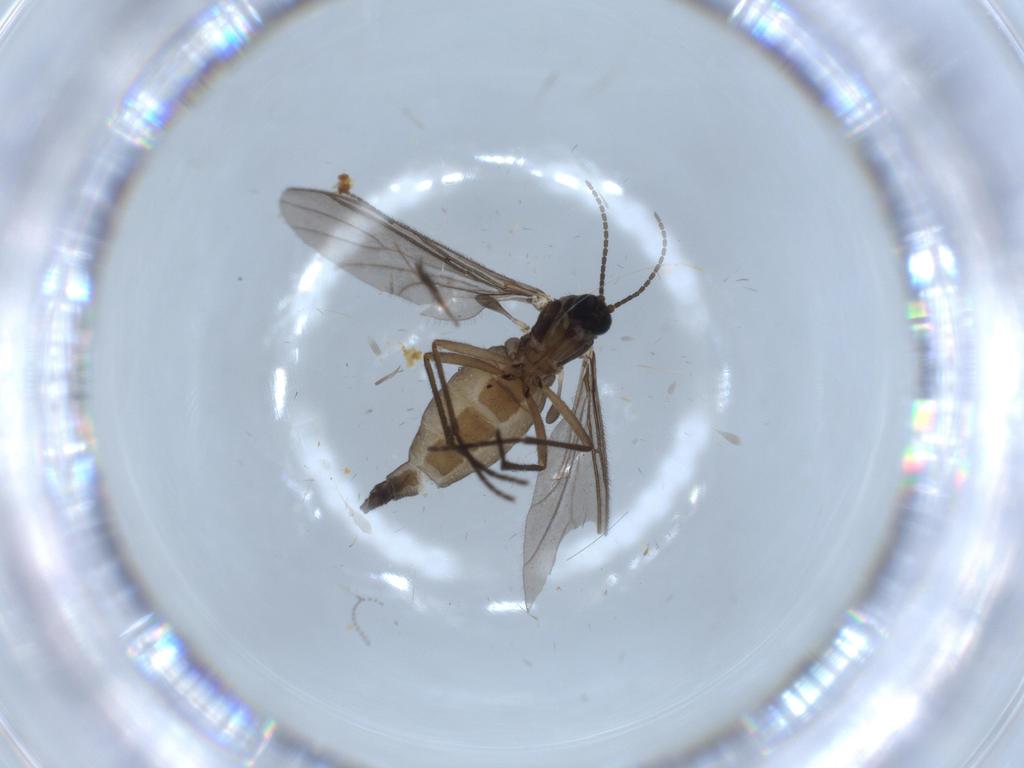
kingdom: Animalia
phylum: Arthropoda
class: Insecta
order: Diptera
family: Sciaridae
